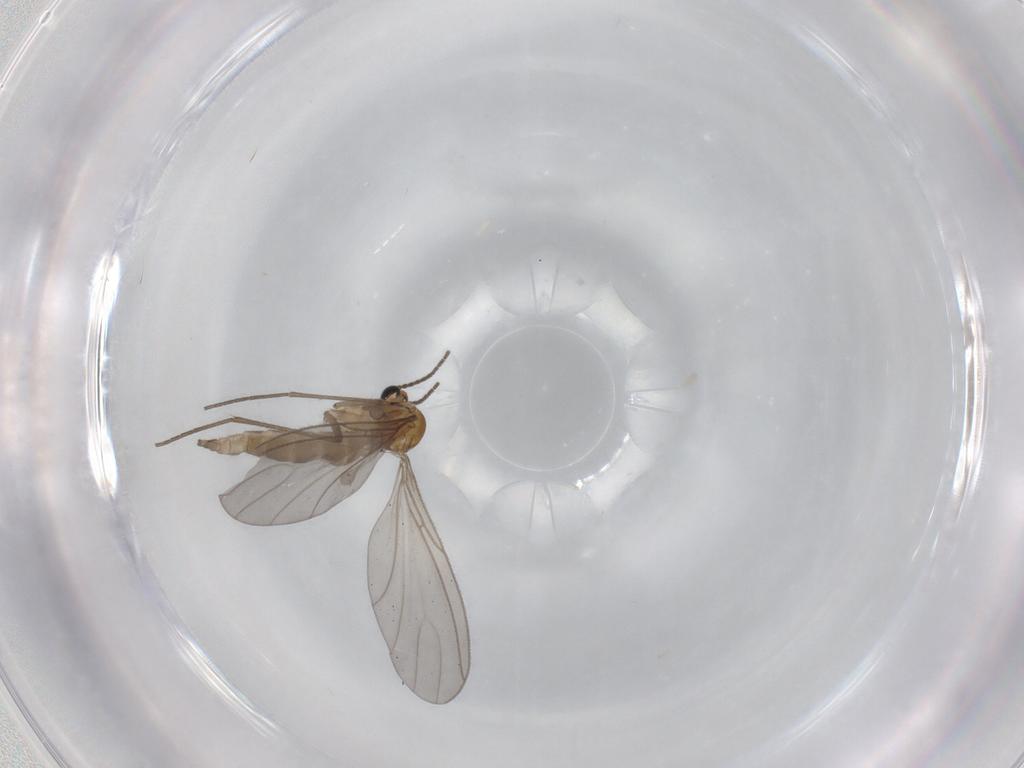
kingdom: Animalia
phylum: Arthropoda
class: Insecta
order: Diptera
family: Sciaridae
